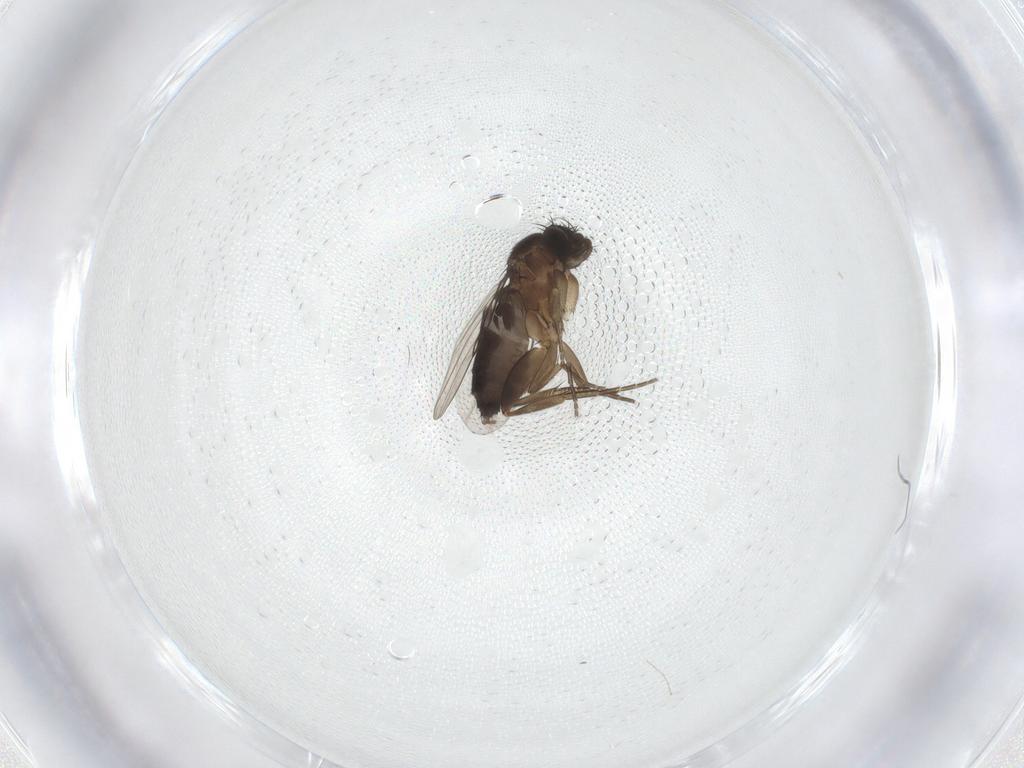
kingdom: Animalia
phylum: Arthropoda
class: Insecta
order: Diptera
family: Phoridae
